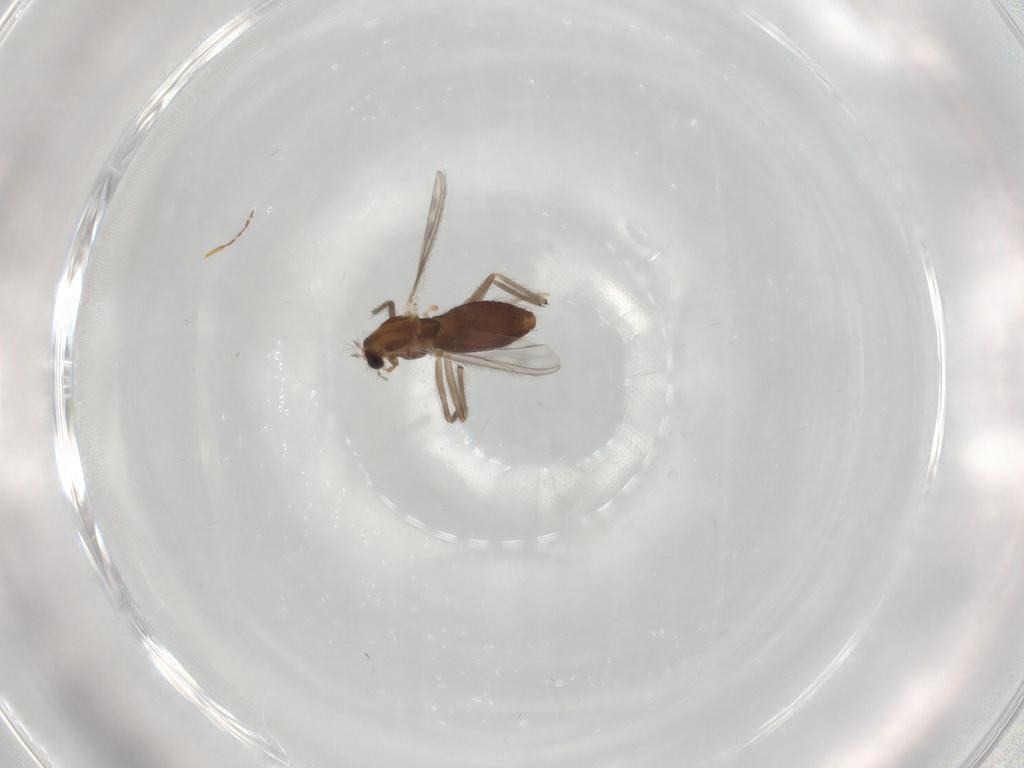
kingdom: Animalia
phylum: Arthropoda
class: Insecta
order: Diptera
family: Chironomidae
